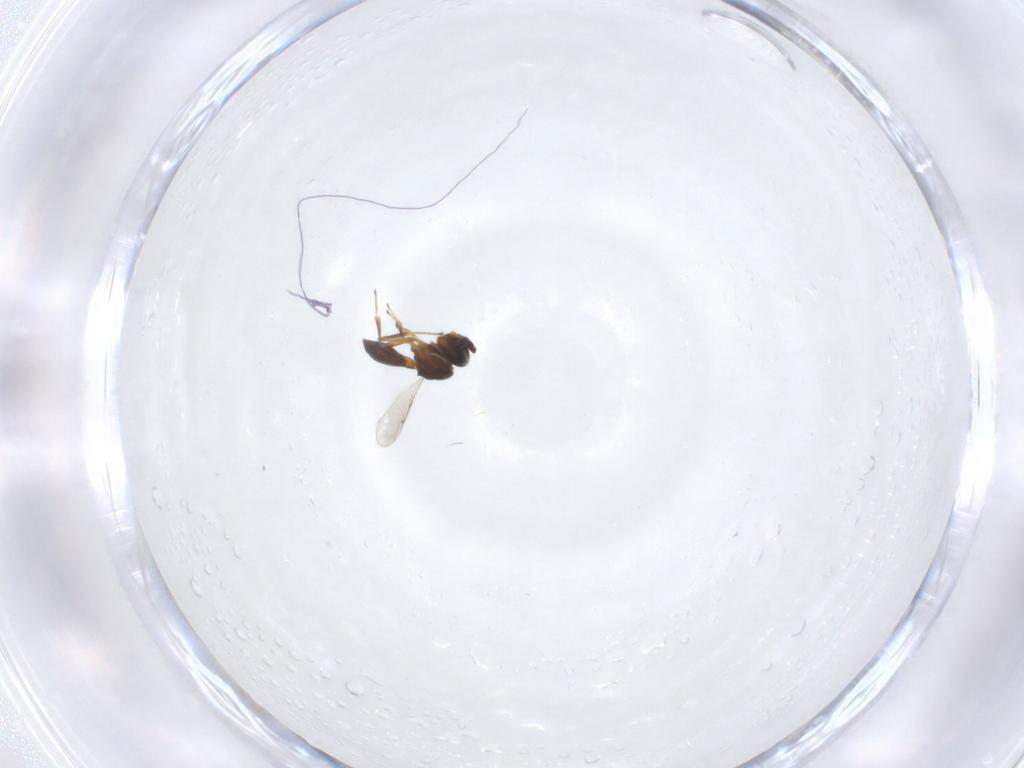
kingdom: Animalia
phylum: Arthropoda
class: Insecta
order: Hymenoptera
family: Scelionidae
